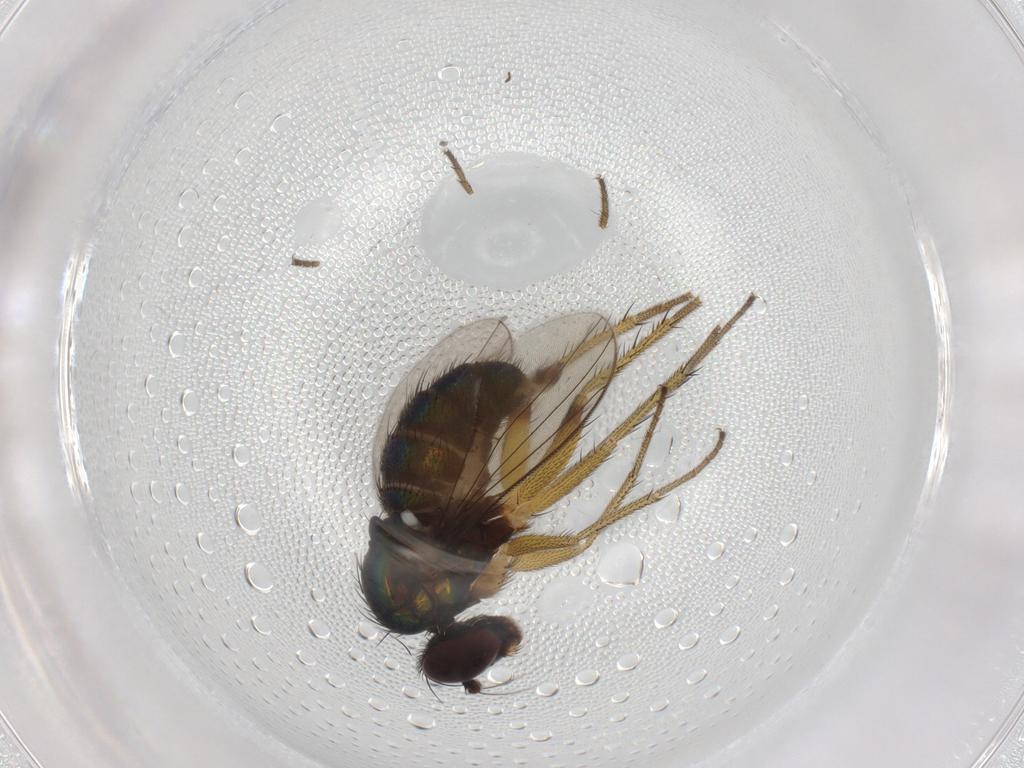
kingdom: Animalia
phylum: Arthropoda
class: Insecta
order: Diptera
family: Dolichopodidae
